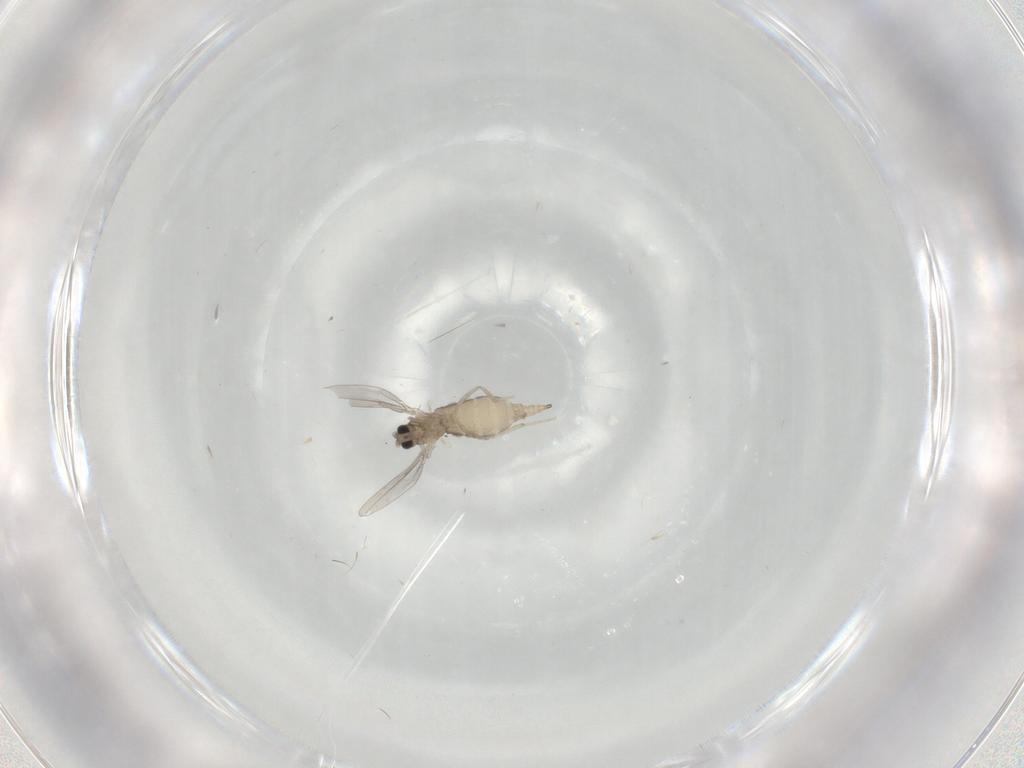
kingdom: Animalia
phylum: Arthropoda
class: Insecta
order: Diptera
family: Cecidomyiidae
